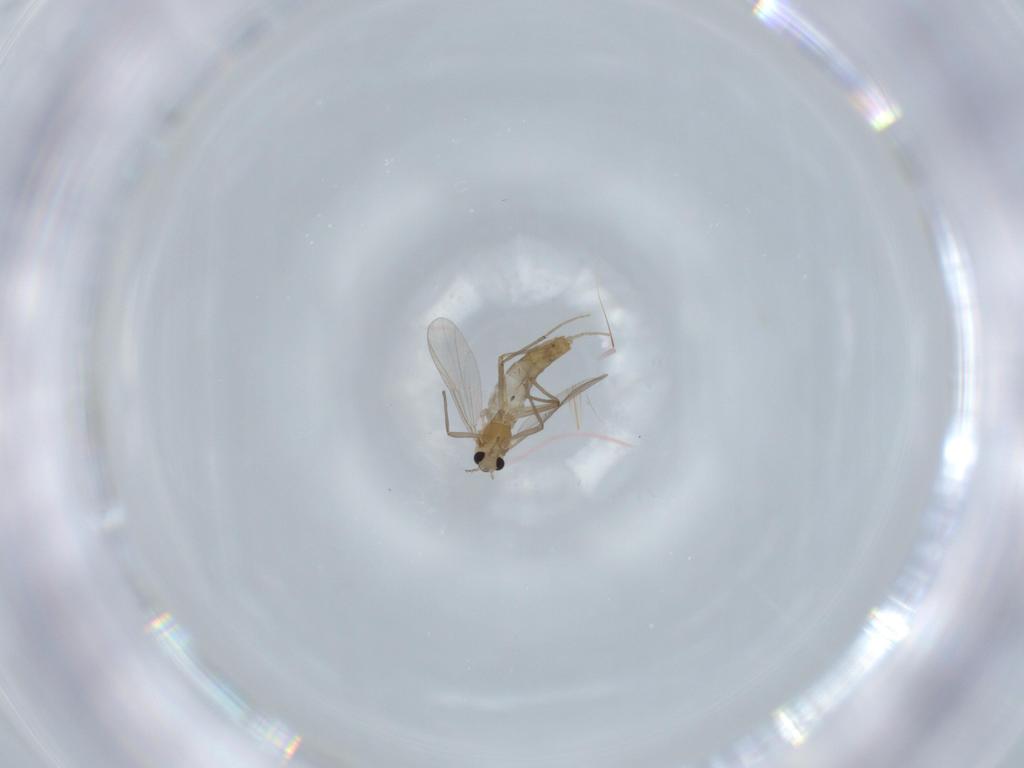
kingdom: Animalia
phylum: Arthropoda
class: Insecta
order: Diptera
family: Chironomidae
